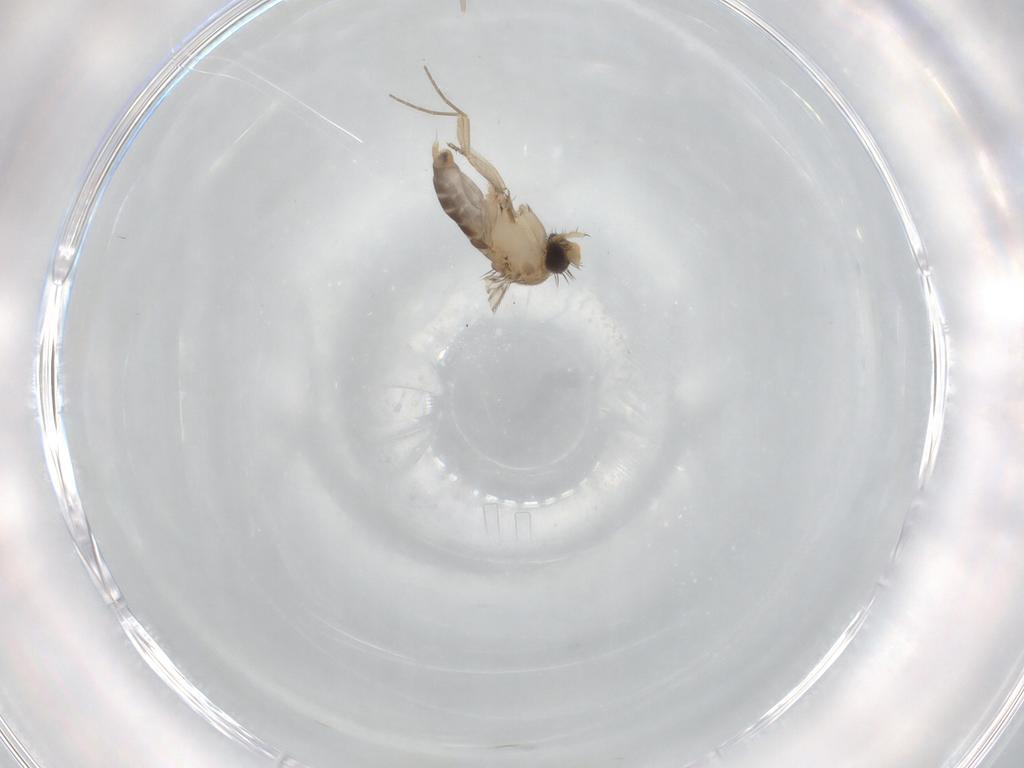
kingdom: Animalia
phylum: Arthropoda
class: Insecta
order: Diptera
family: Phoridae
